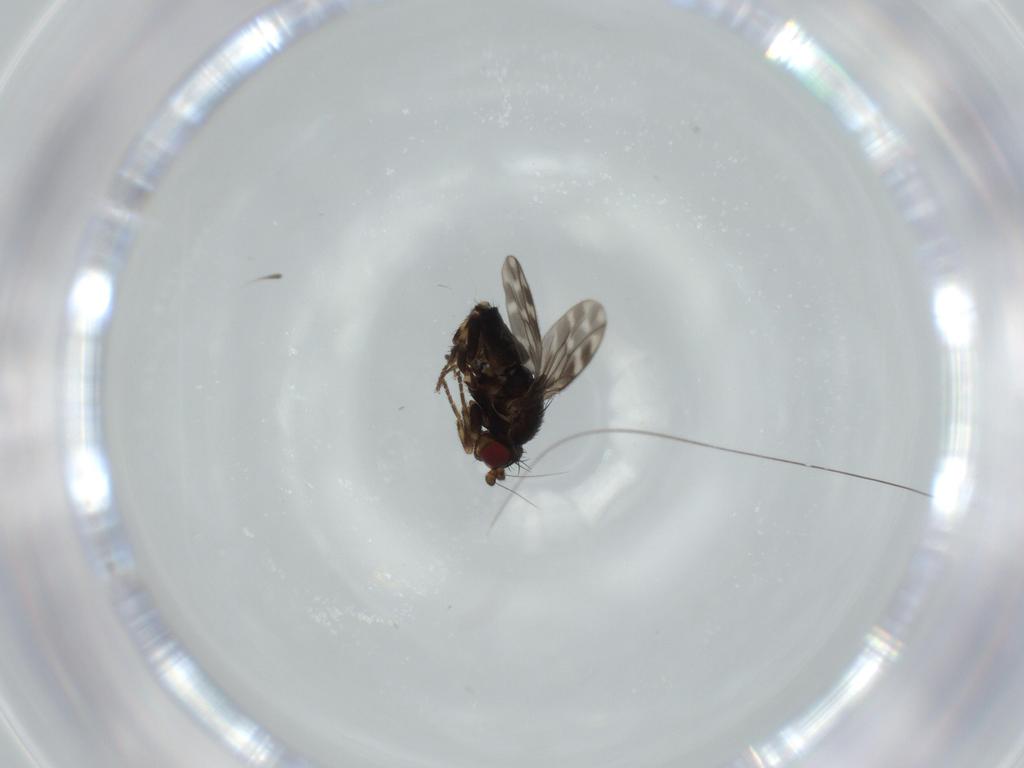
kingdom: Animalia
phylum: Arthropoda
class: Insecta
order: Diptera
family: Sphaeroceridae
